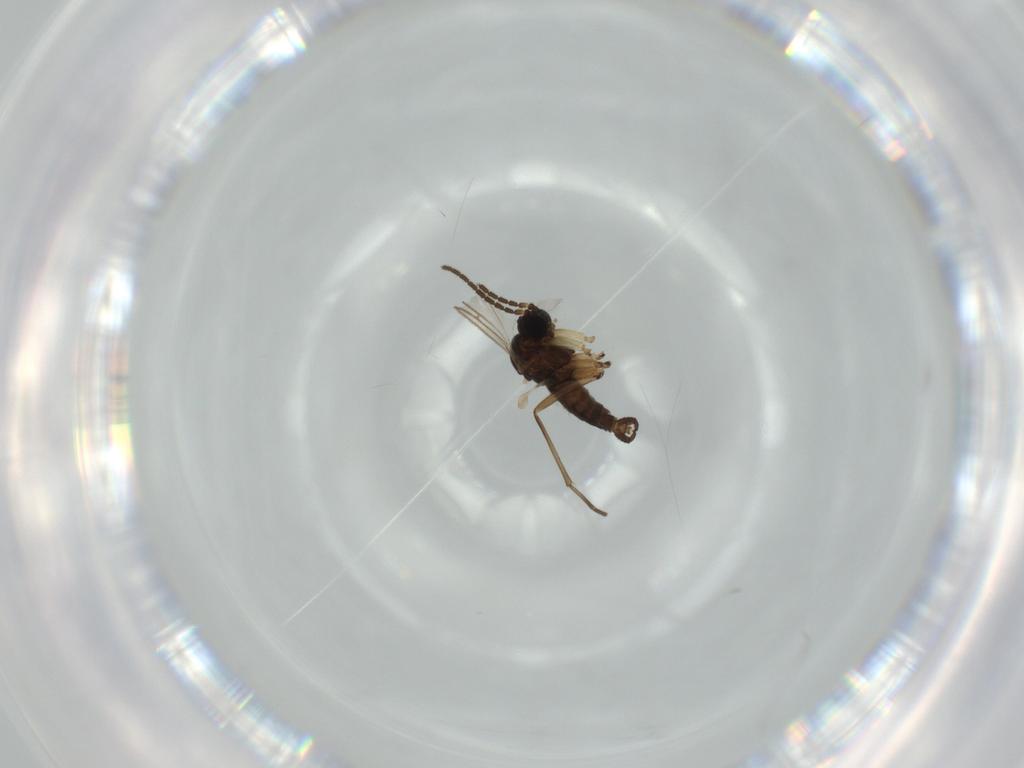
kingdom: Animalia
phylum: Arthropoda
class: Insecta
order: Diptera
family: Sciaridae
